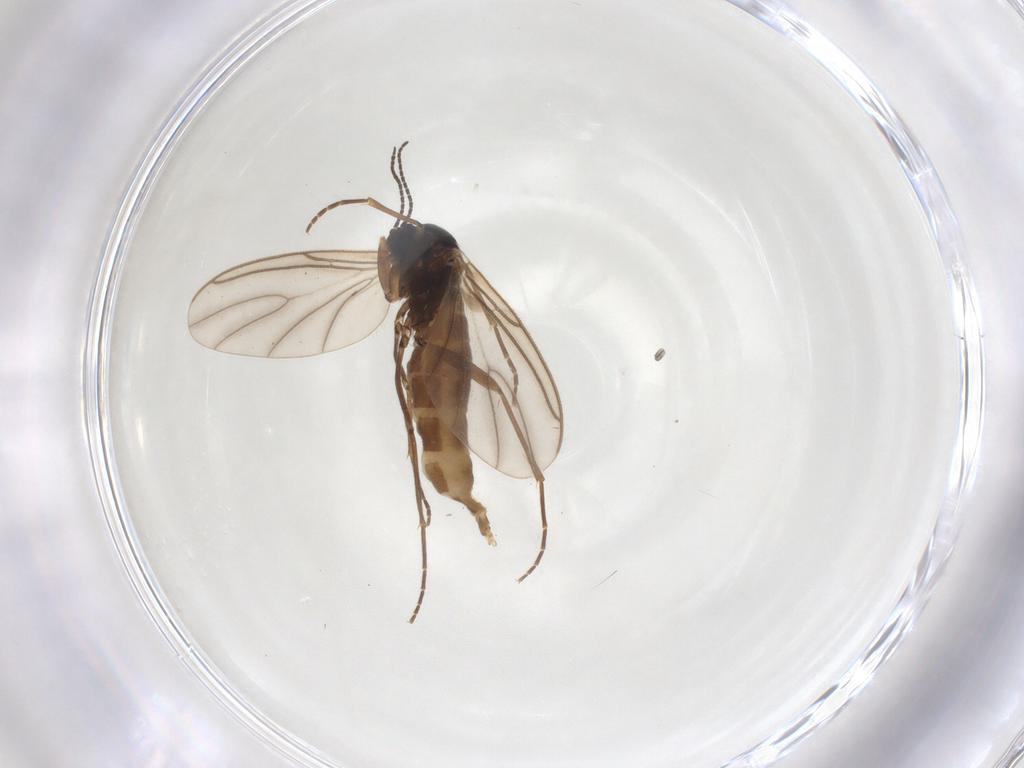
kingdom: Animalia
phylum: Arthropoda
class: Insecta
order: Diptera
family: Sciaridae
